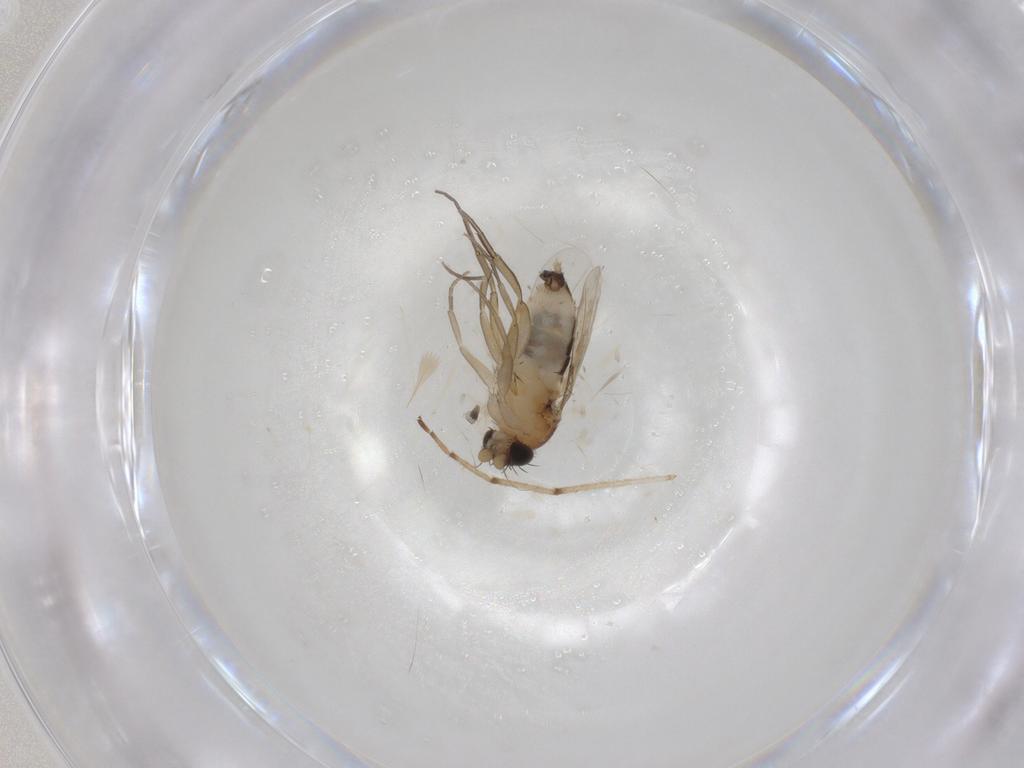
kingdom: Animalia
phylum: Arthropoda
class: Insecta
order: Diptera
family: Phoridae
